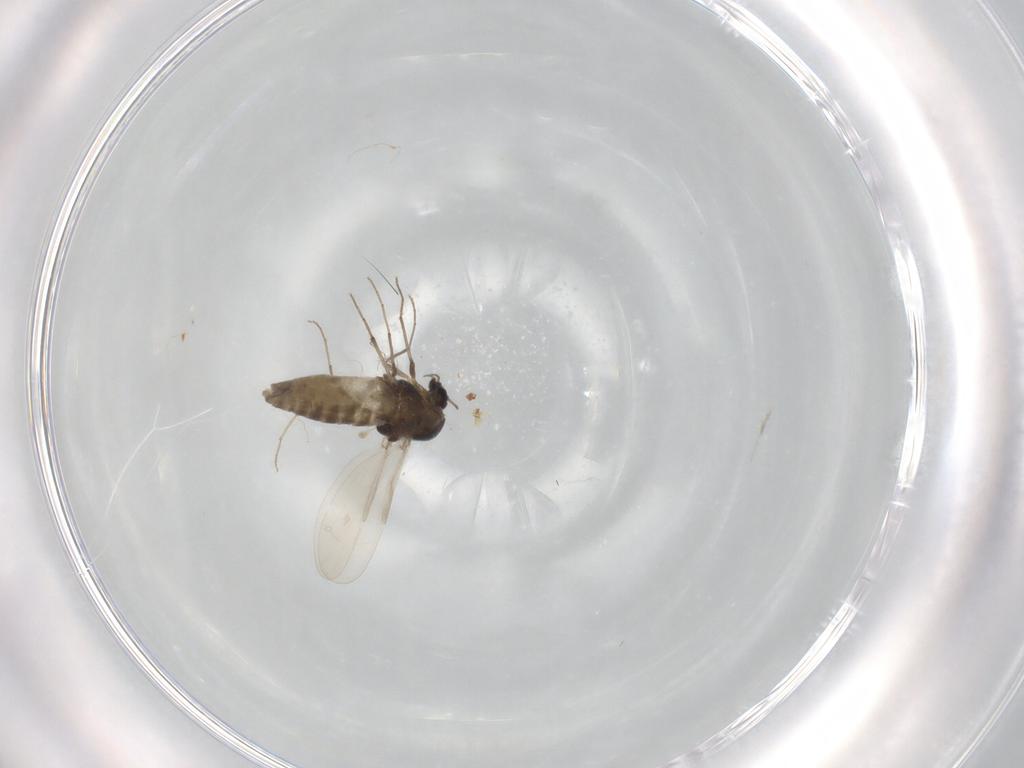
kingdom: Animalia
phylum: Arthropoda
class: Insecta
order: Diptera
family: Chironomidae
